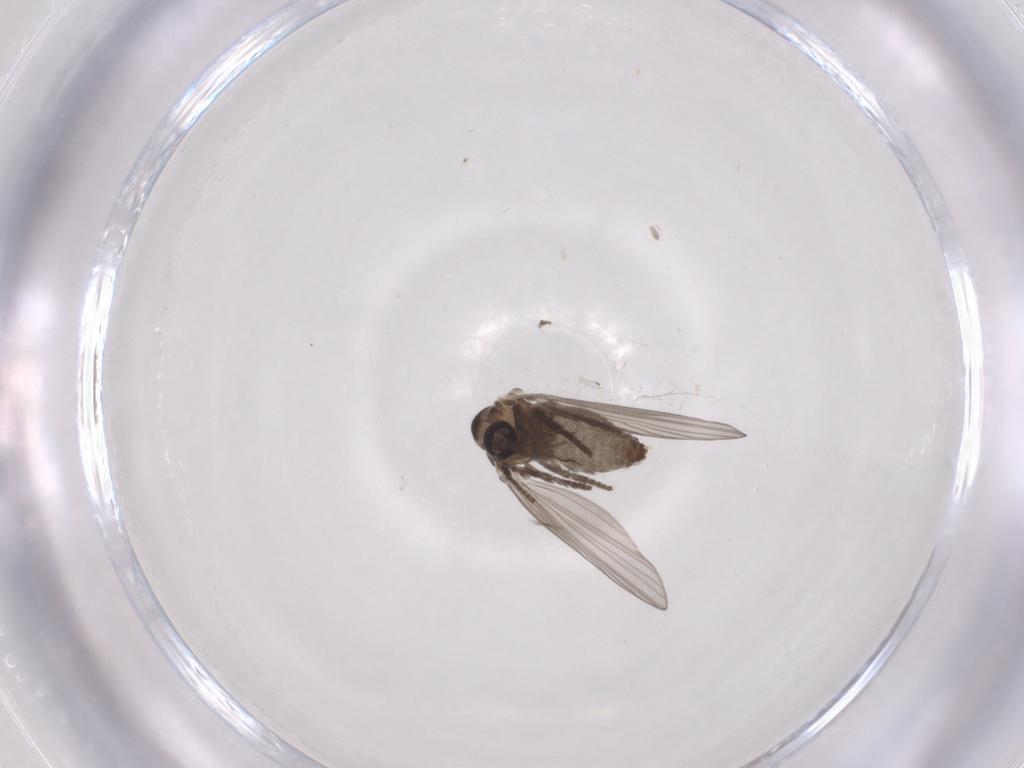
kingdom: Animalia
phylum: Arthropoda
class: Insecta
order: Diptera
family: Psychodidae
